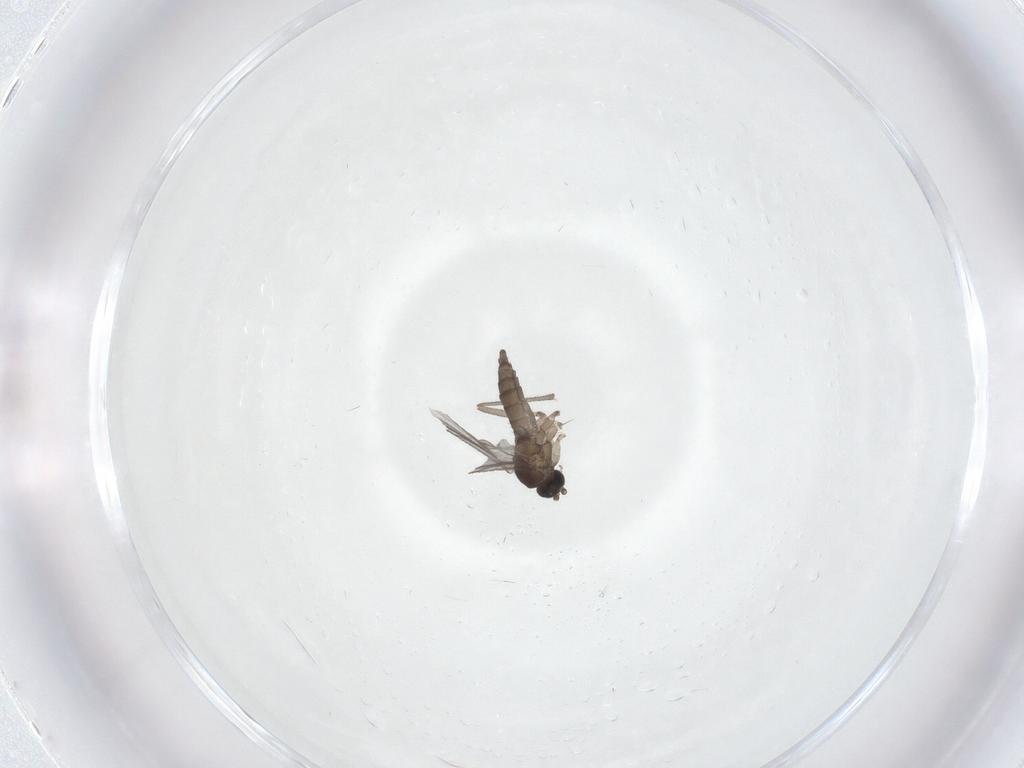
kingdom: Animalia
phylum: Arthropoda
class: Insecta
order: Diptera
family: Sciaridae
